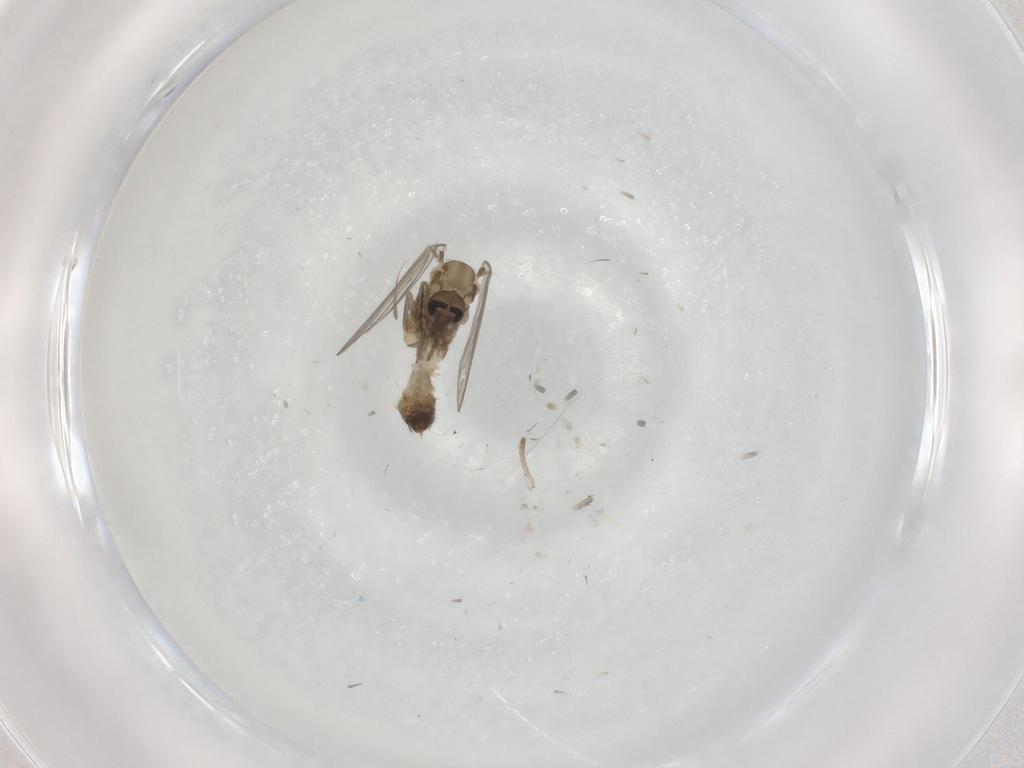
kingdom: Animalia
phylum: Arthropoda
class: Insecta
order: Diptera
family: Psychodidae
